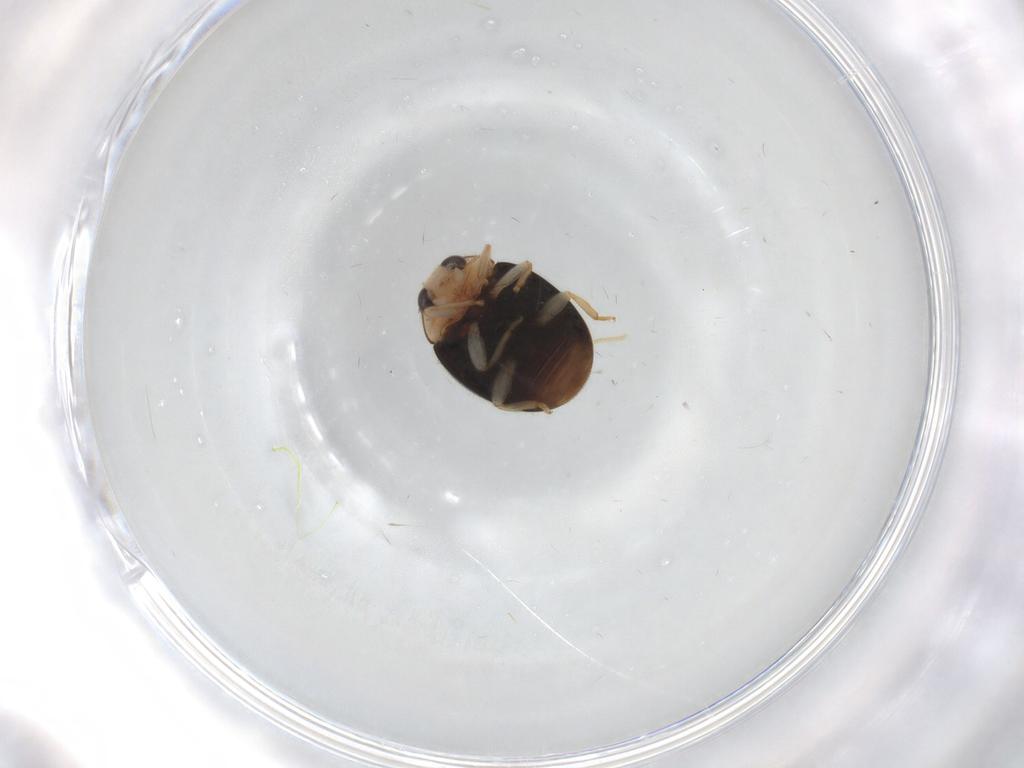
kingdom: Animalia
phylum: Arthropoda
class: Insecta
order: Coleoptera
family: Chrysomelidae
